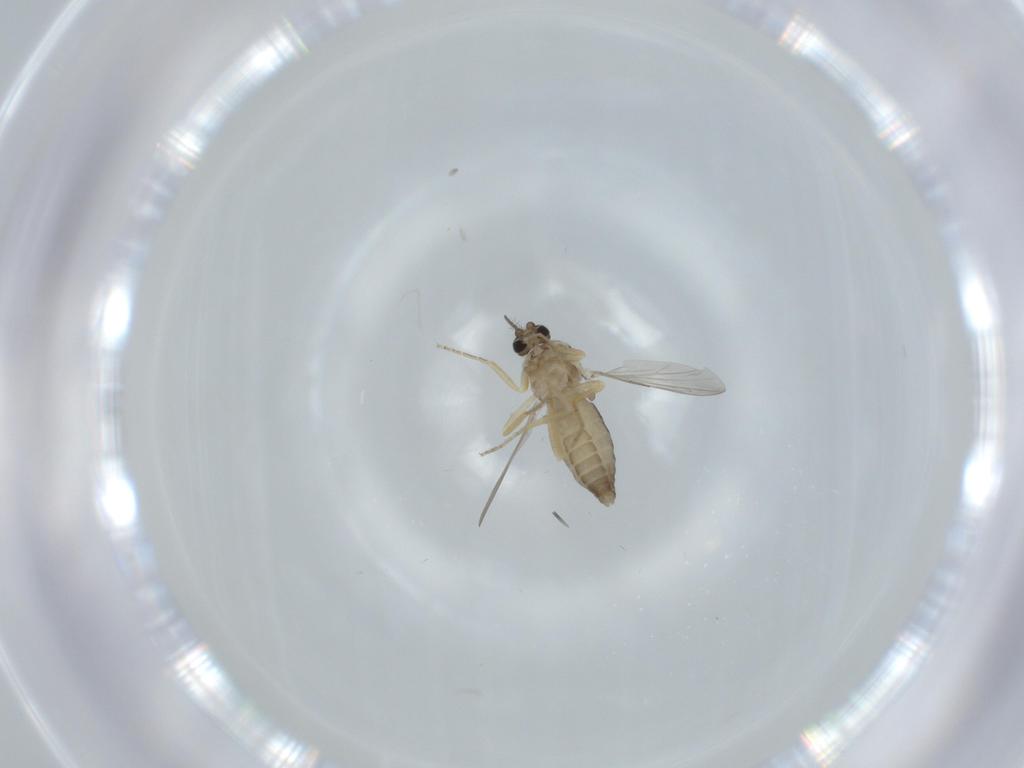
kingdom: Animalia
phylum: Arthropoda
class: Insecta
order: Diptera
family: Ceratopogonidae
